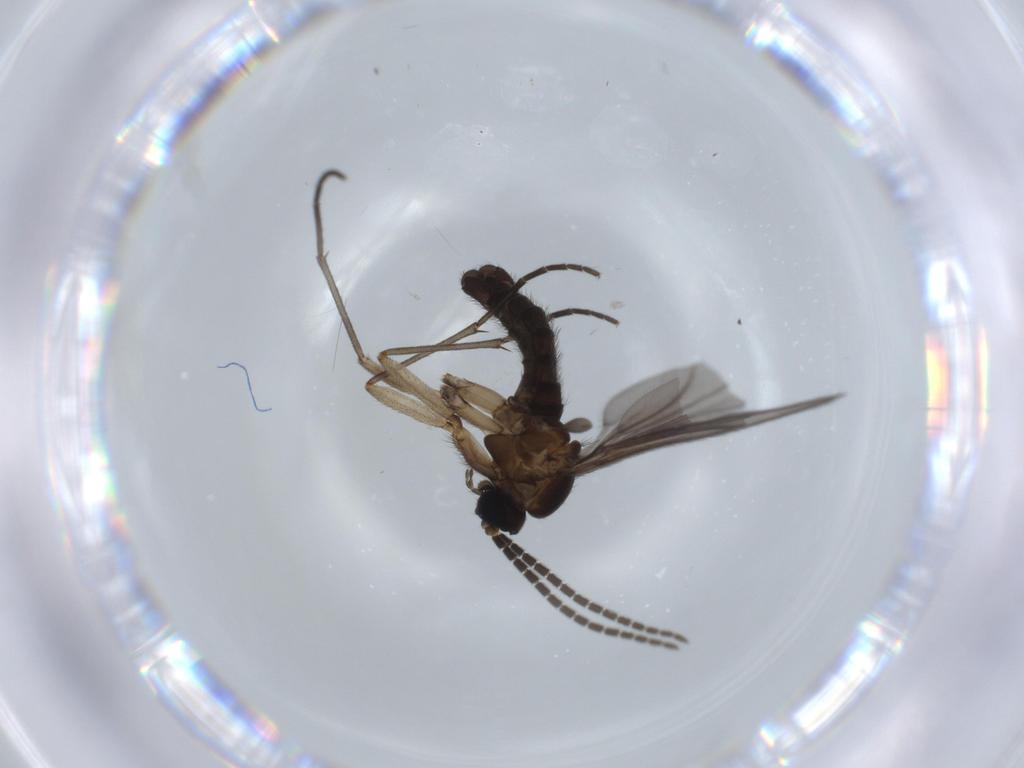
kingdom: Animalia
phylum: Arthropoda
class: Insecta
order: Diptera
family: Sciaridae
